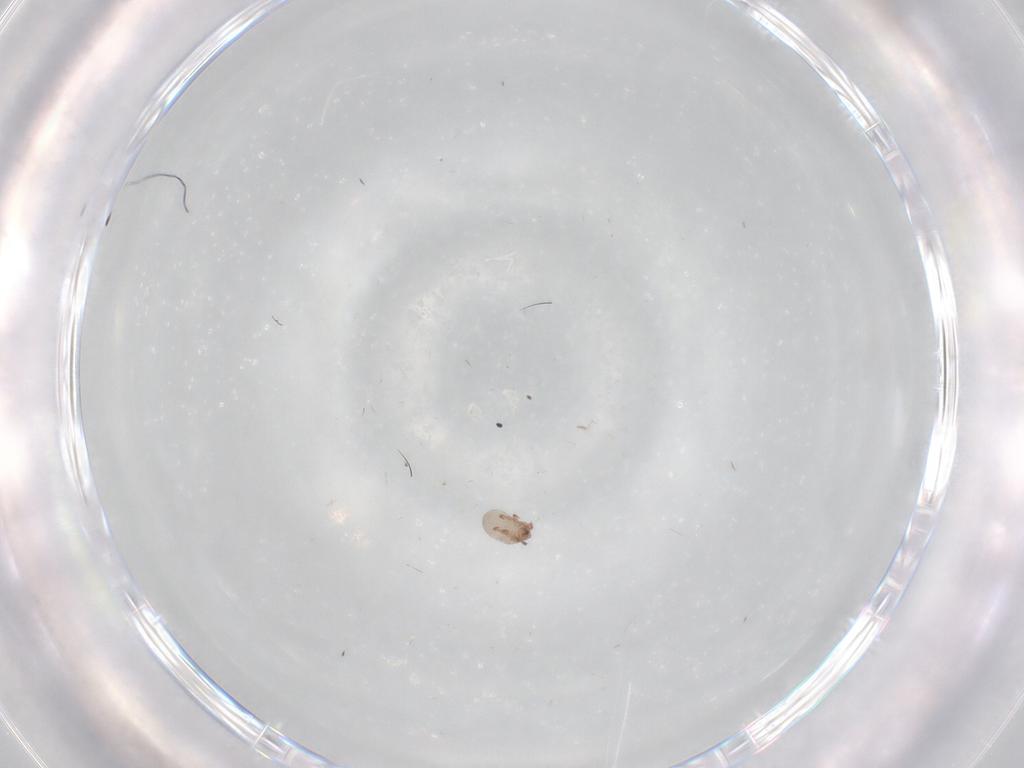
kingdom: Animalia
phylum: Arthropoda
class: Arachnida
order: Sarcoptiformes
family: Punctoribatidae
